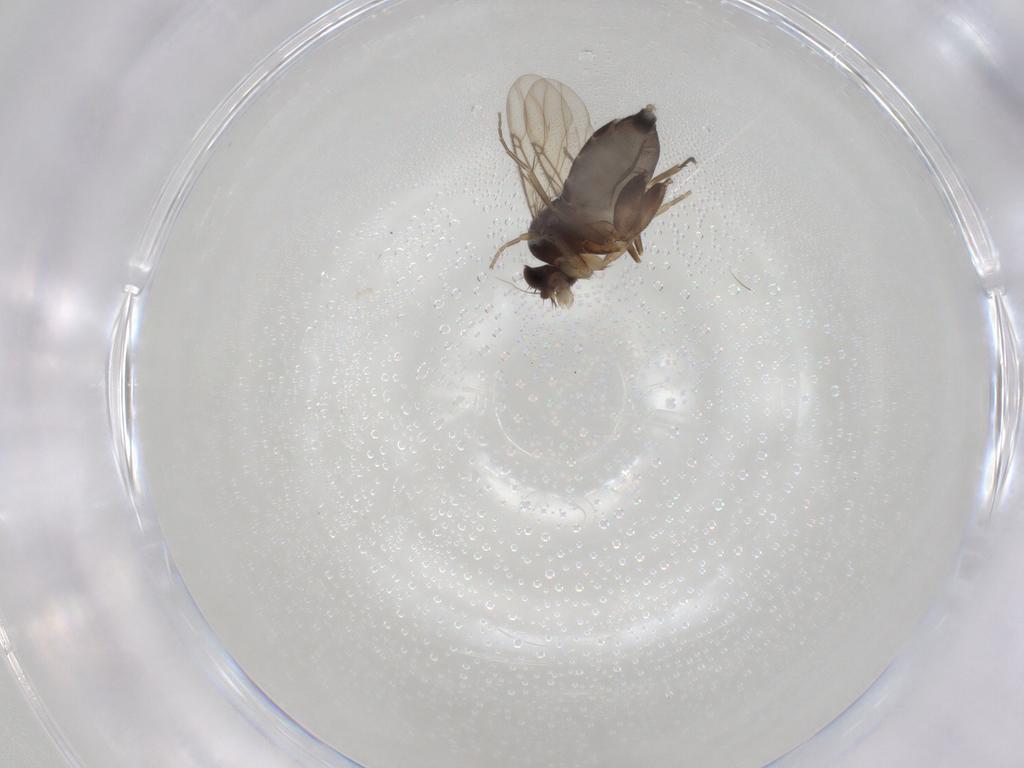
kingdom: Animalia
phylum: Arthropoda
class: Insecta
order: Diptera
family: Phoridae
